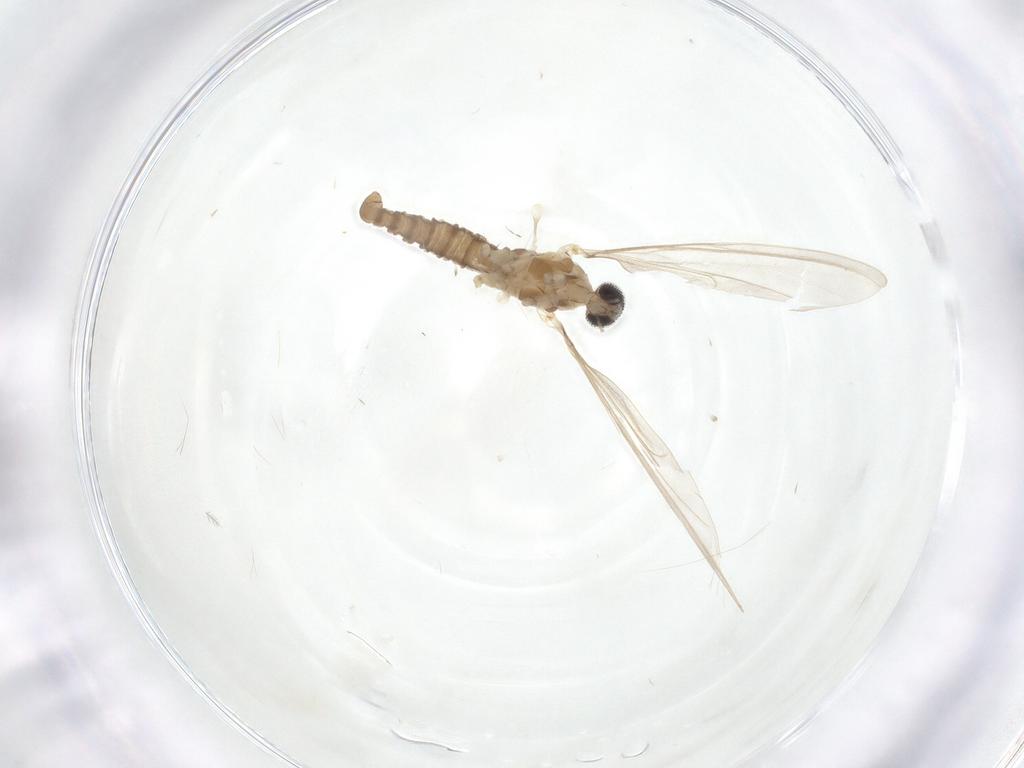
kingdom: Animalia
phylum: Arthropoda
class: Insecta
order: Diptera
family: Cecidomyiidae
